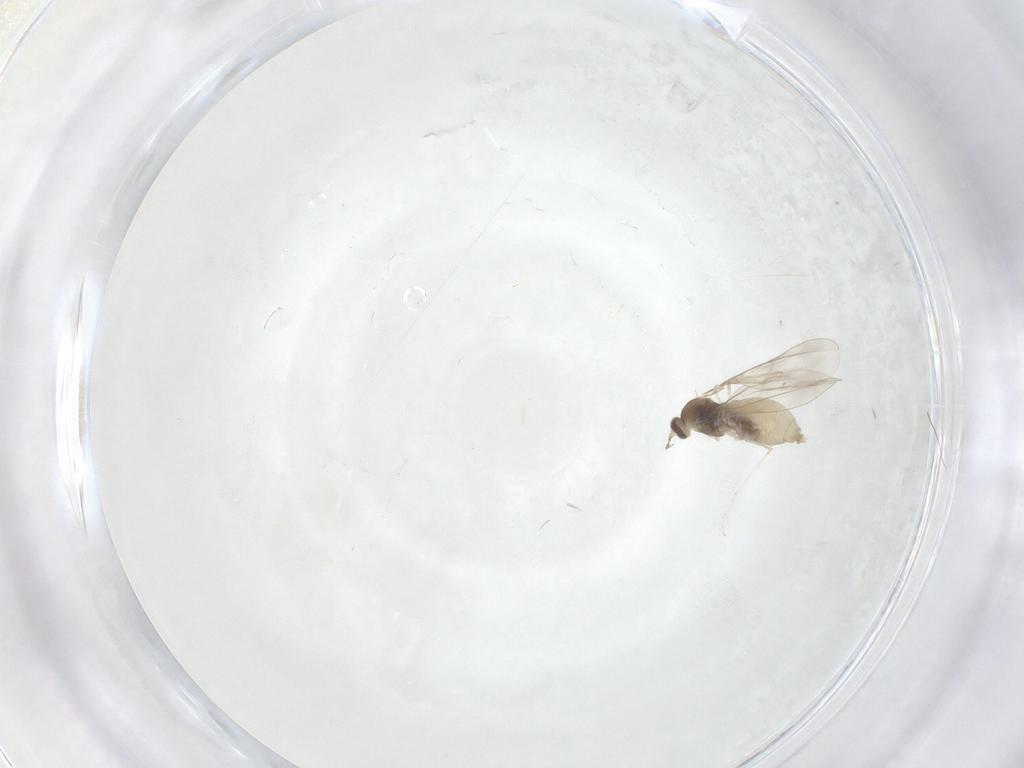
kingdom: Animalia
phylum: Arthropoda
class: Insecta
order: Diptera
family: Cecidomyiidae
